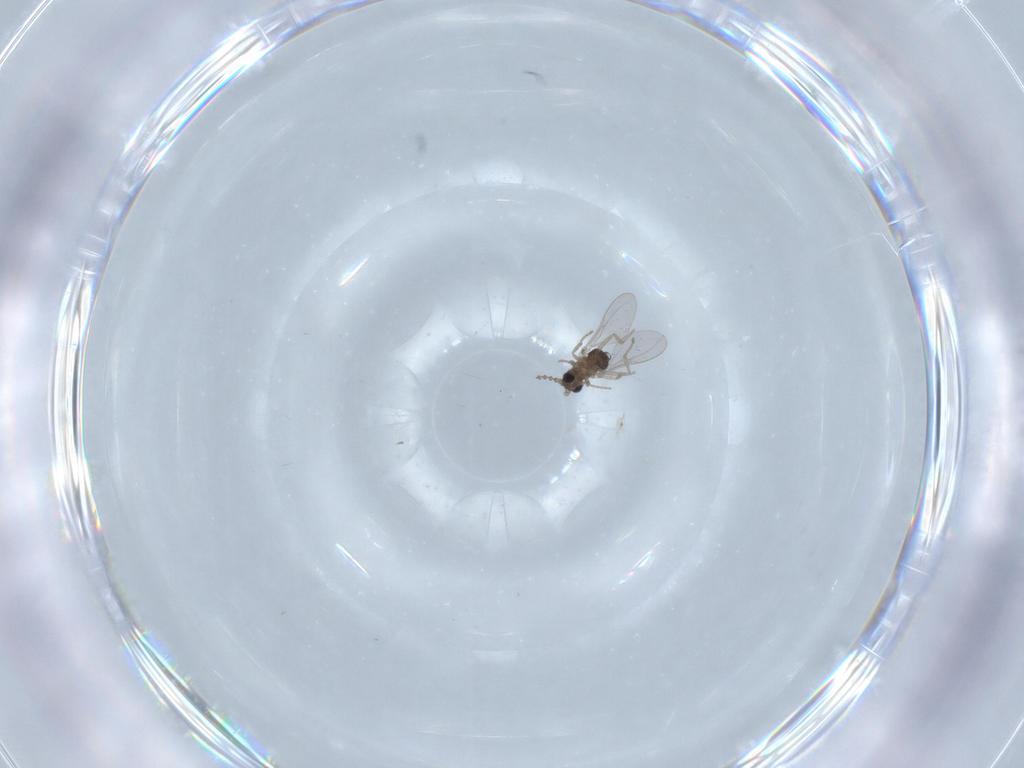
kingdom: Animalia
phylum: Arthropoda
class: Insecta
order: Diptera
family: Cecidomyiidae
